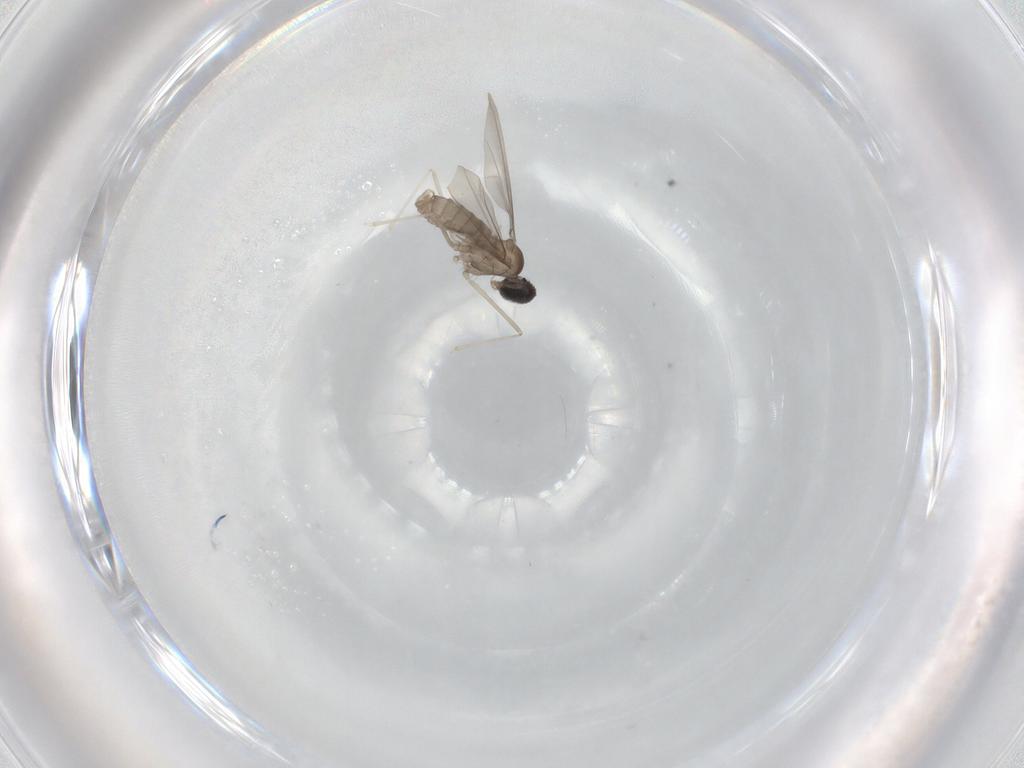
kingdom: Animalia
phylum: Arthropoda
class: Insecta
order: Diptera
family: Cecidomyiidae
